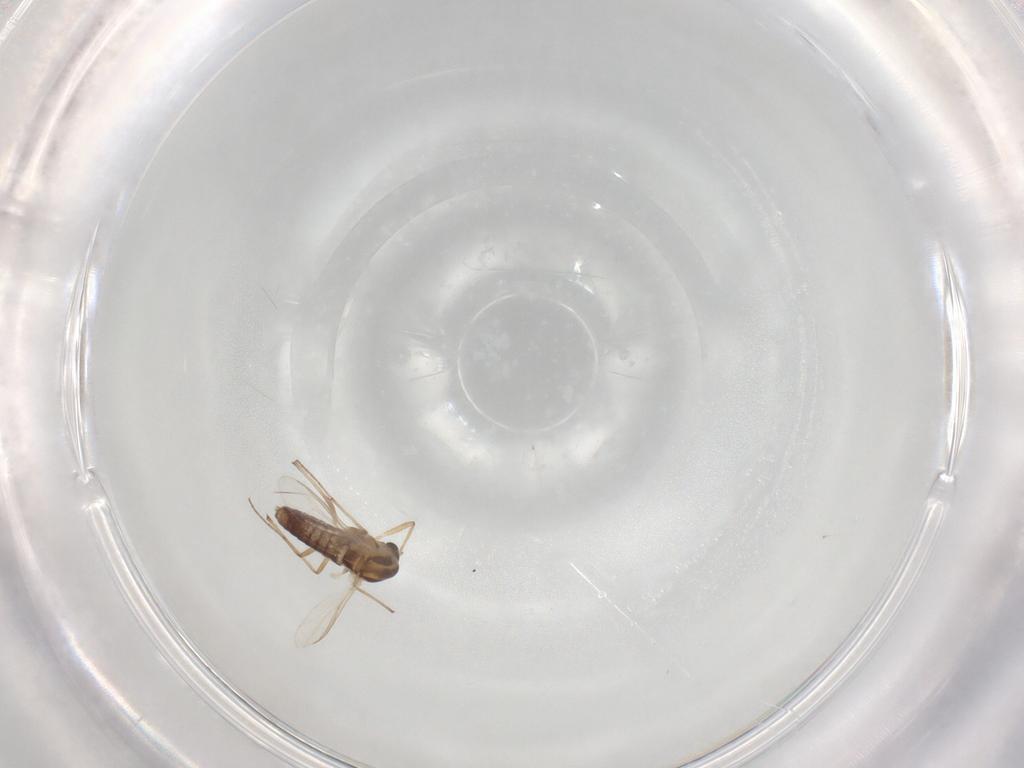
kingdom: Animalia
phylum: Arthropoda
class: Insecta
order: Diptera
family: Chironomidae
